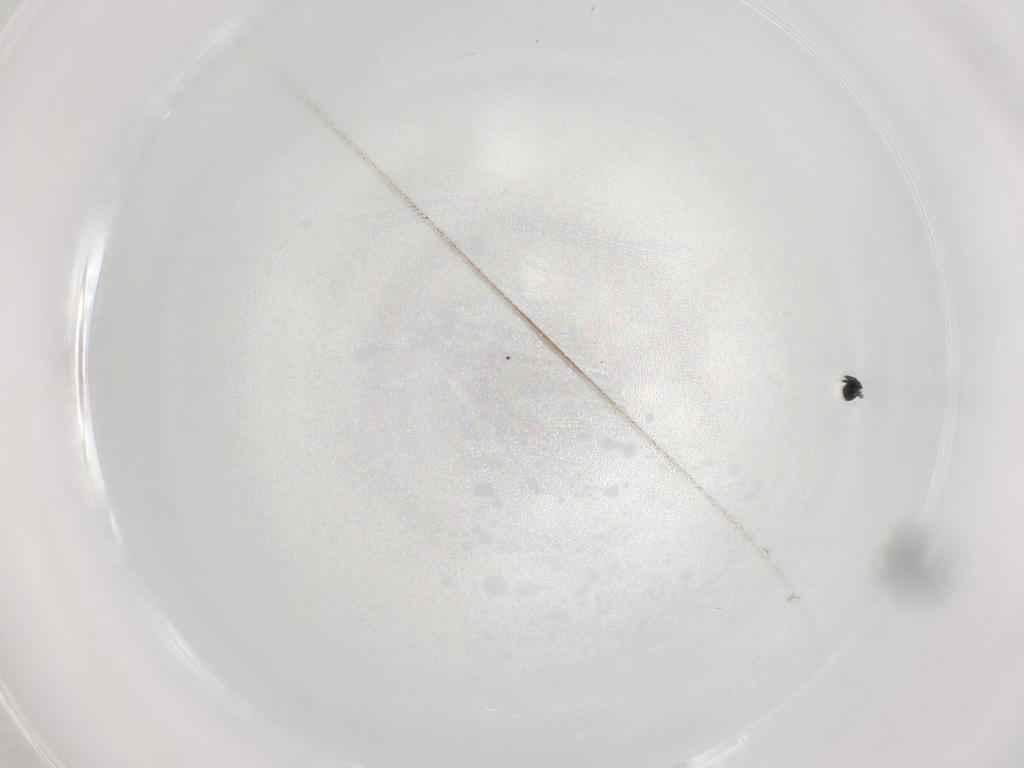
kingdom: Animalia
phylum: Arthropoda
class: Insecta
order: Hymenoptera
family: Scelionidae
